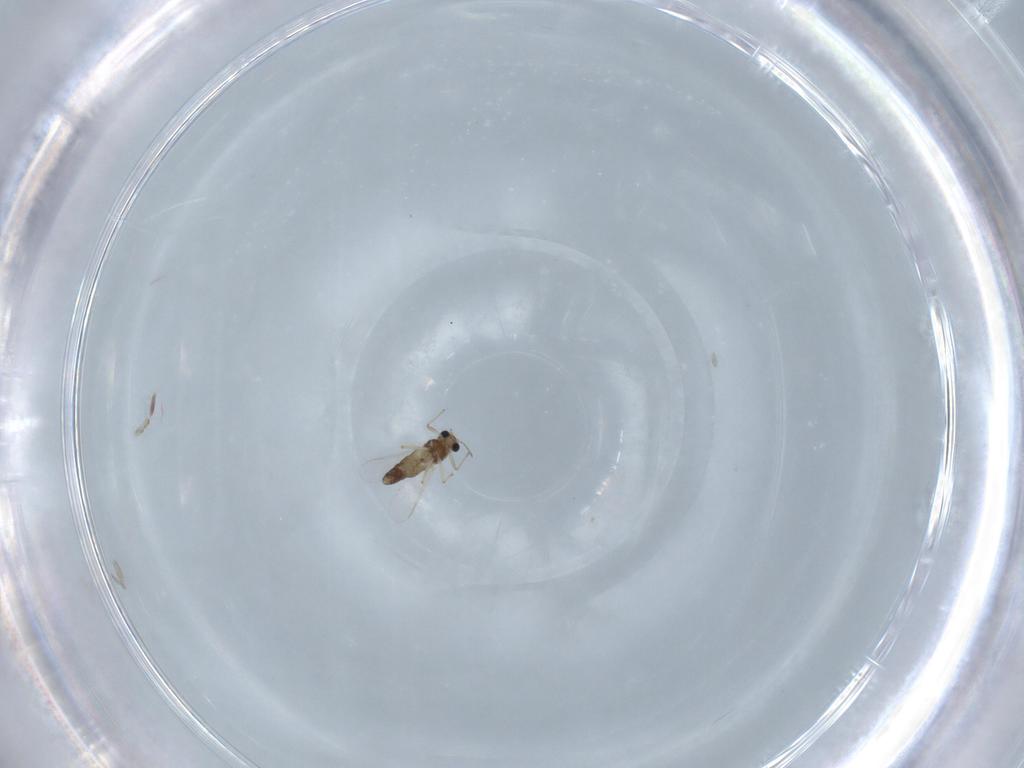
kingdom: Animalia
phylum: Arthropoda
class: Insecta
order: Diptera
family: Chironomidae
